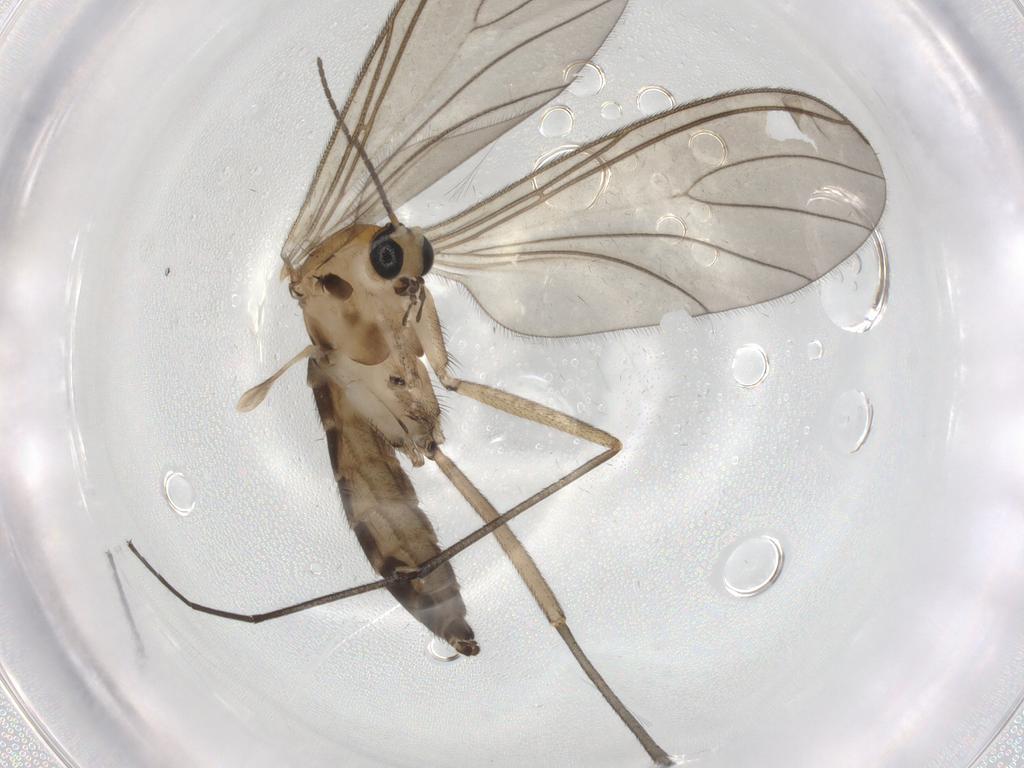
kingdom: Animalia
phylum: Arthropoda
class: Insecta
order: Diptera
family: Sciaridae
